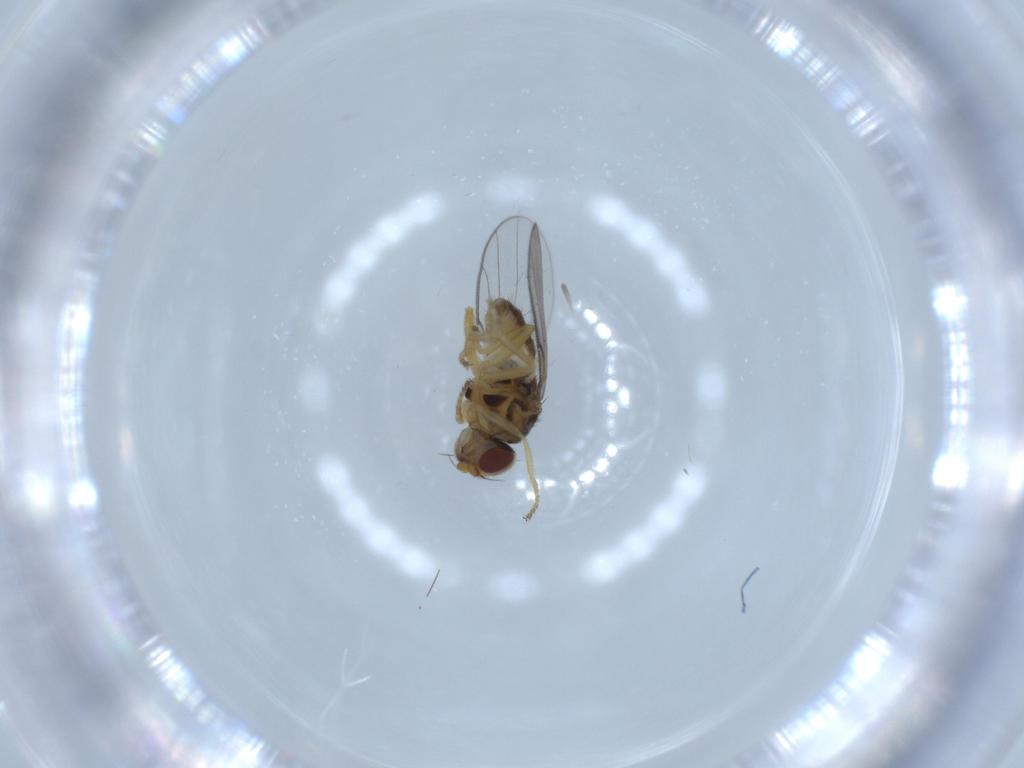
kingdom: Animalia
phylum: Arthropoda
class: Insecta
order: Diptera
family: Chloropidae
